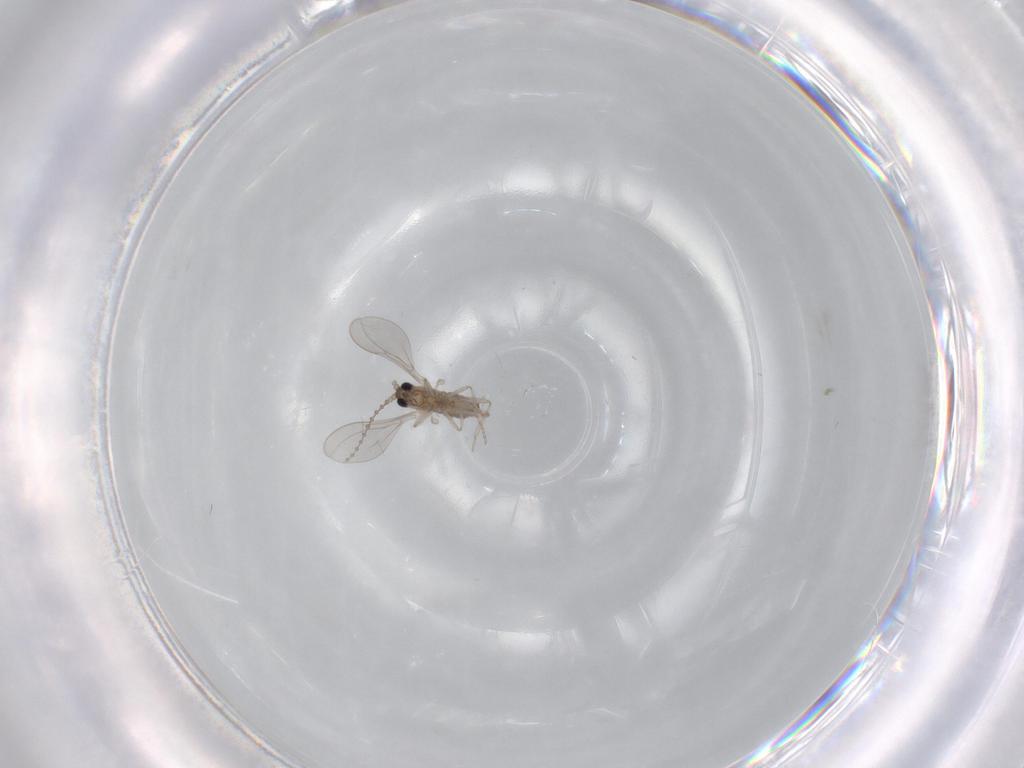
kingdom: Animalia
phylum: Arthropoda
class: Insecta
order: Diptera
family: Cecidomyiidae
